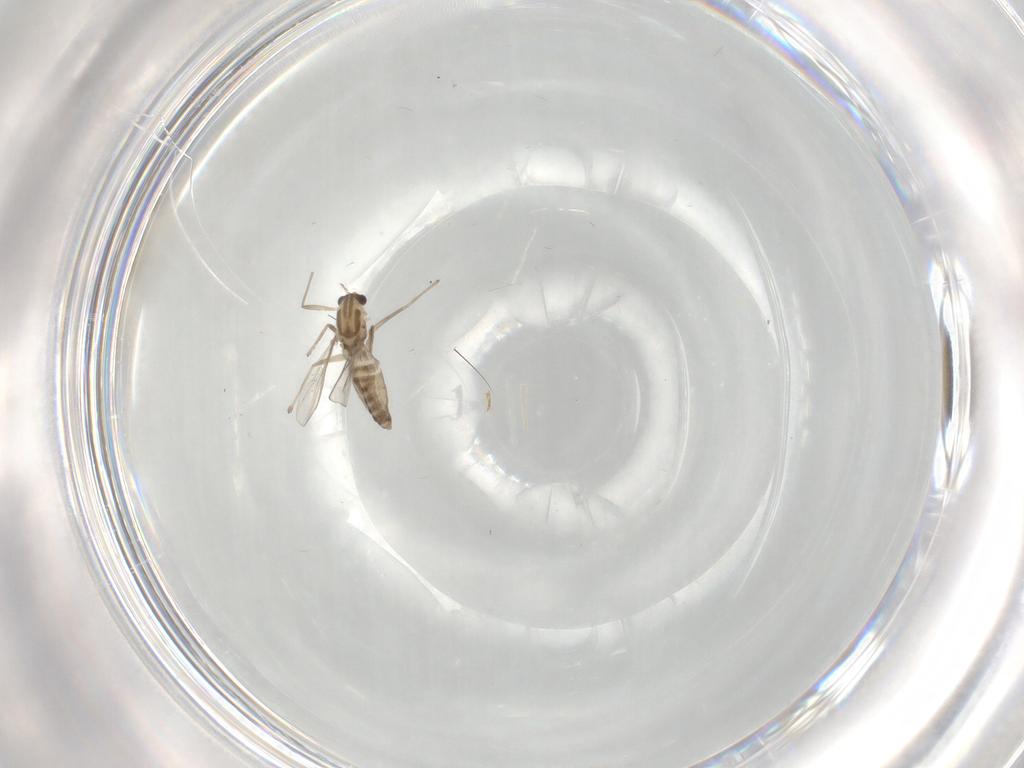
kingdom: Animalia
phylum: Arthropoda
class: Insecta
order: Diptera
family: Chironomidae
